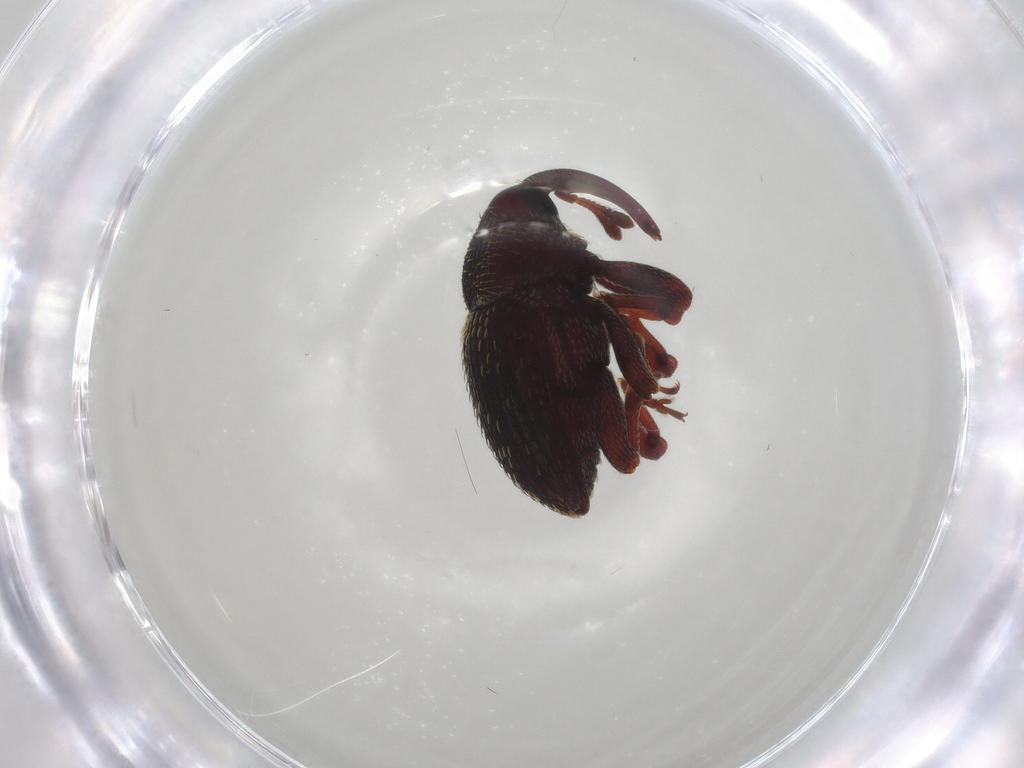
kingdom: Animalia
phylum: Arthropoda
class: Insecta
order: Coleoptera
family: Curculionidae
